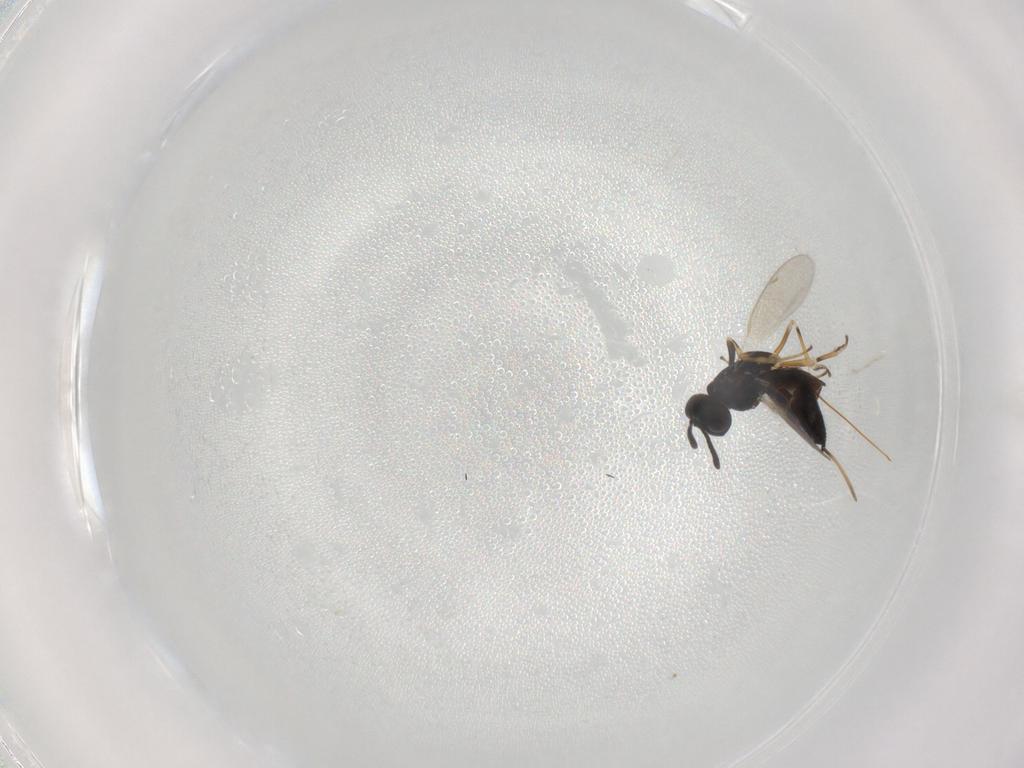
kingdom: Animalia
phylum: Arthropoda
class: Insecta
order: Hymenoptera
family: Eupelmidae
